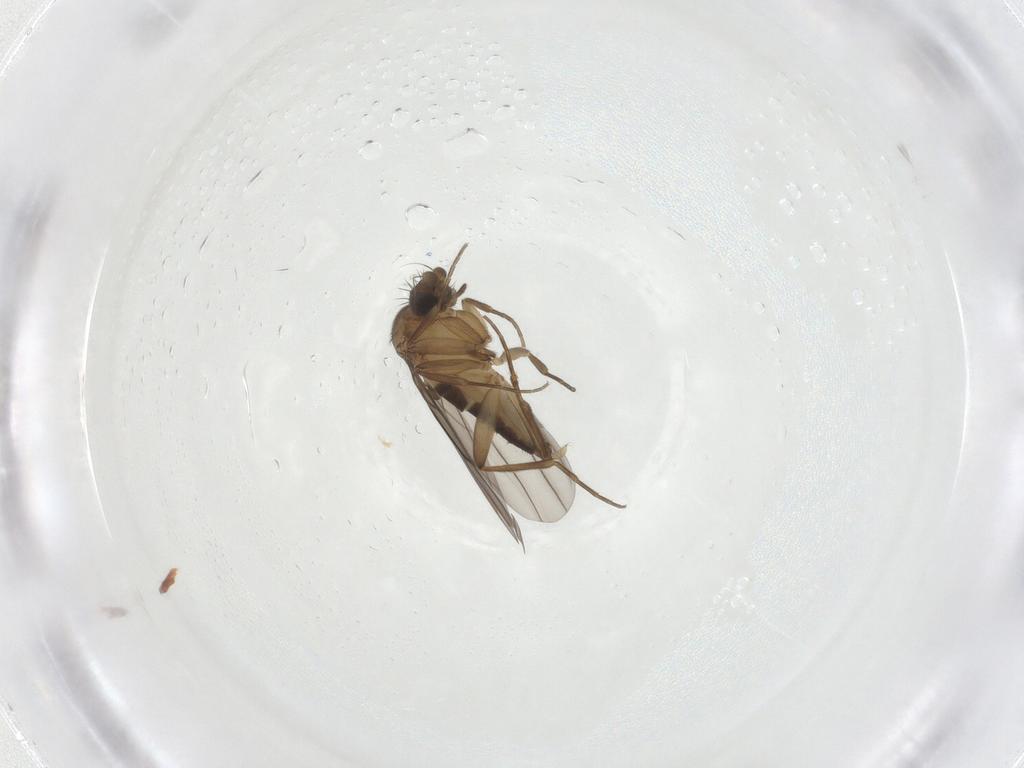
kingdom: Animalia
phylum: Arthropoda
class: Insecta
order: Diptera
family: Phoridae
